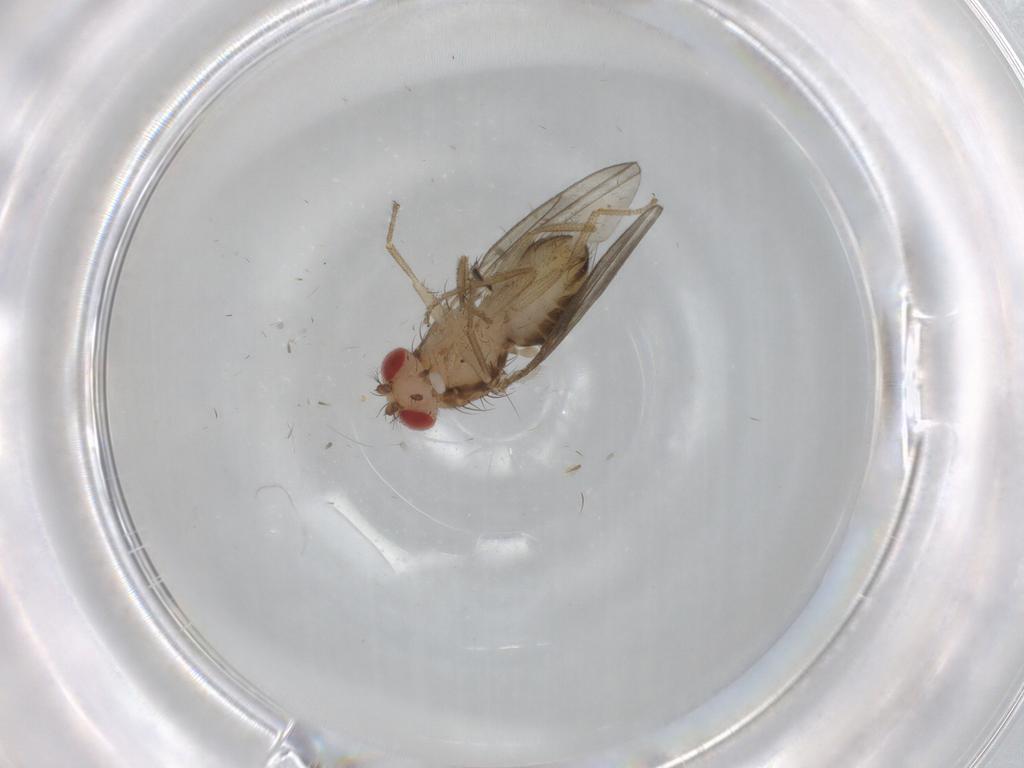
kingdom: Animalia
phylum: Arthropoda
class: Insecta
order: Diptera
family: Drosophilidae
